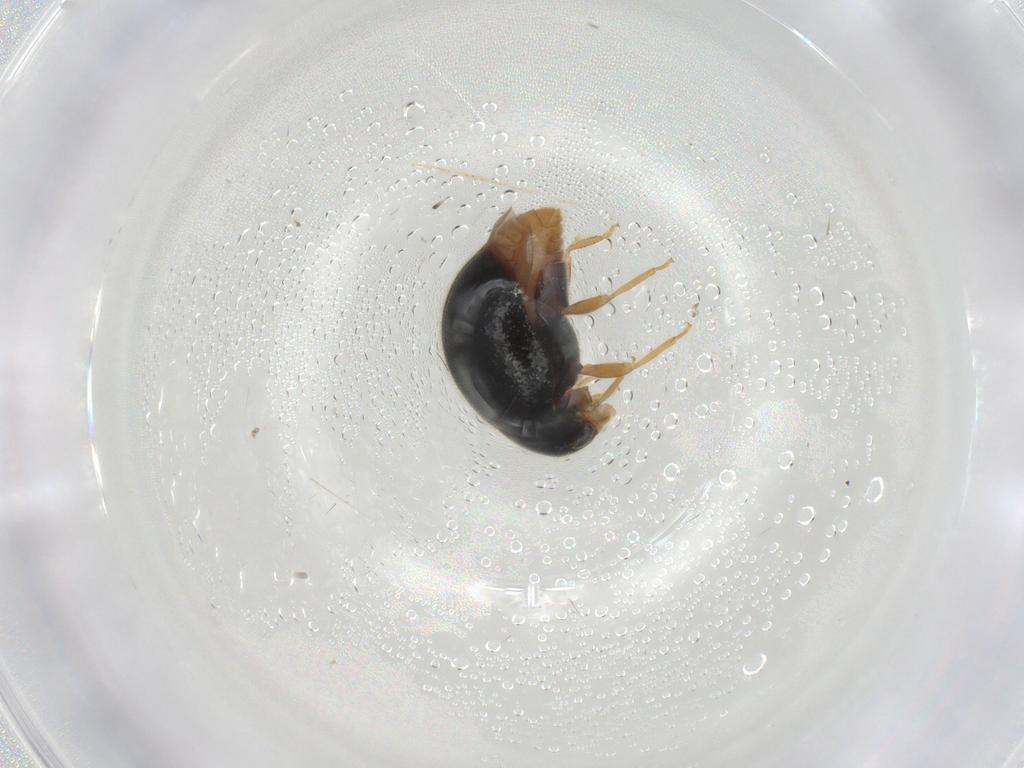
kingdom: Animalia
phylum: Arthropoda
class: Insecta
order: Coleoptera
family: Coccinellidae
